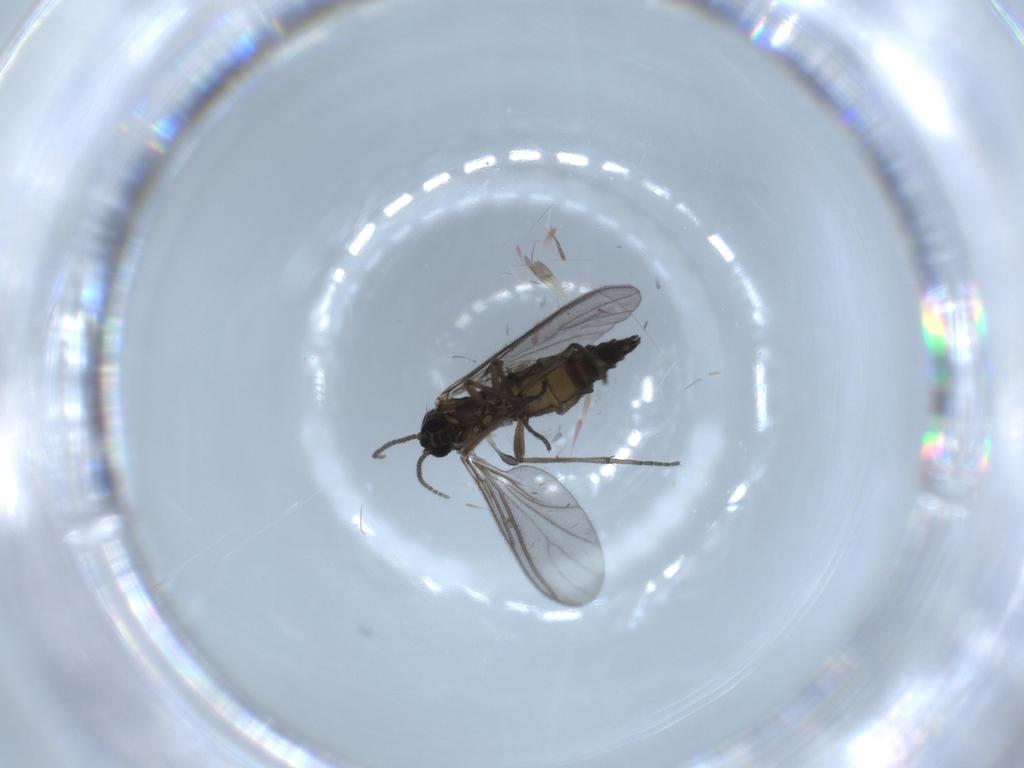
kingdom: Animalia
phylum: Arthropoda
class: Insecta
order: Diptera
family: Sciaridae
